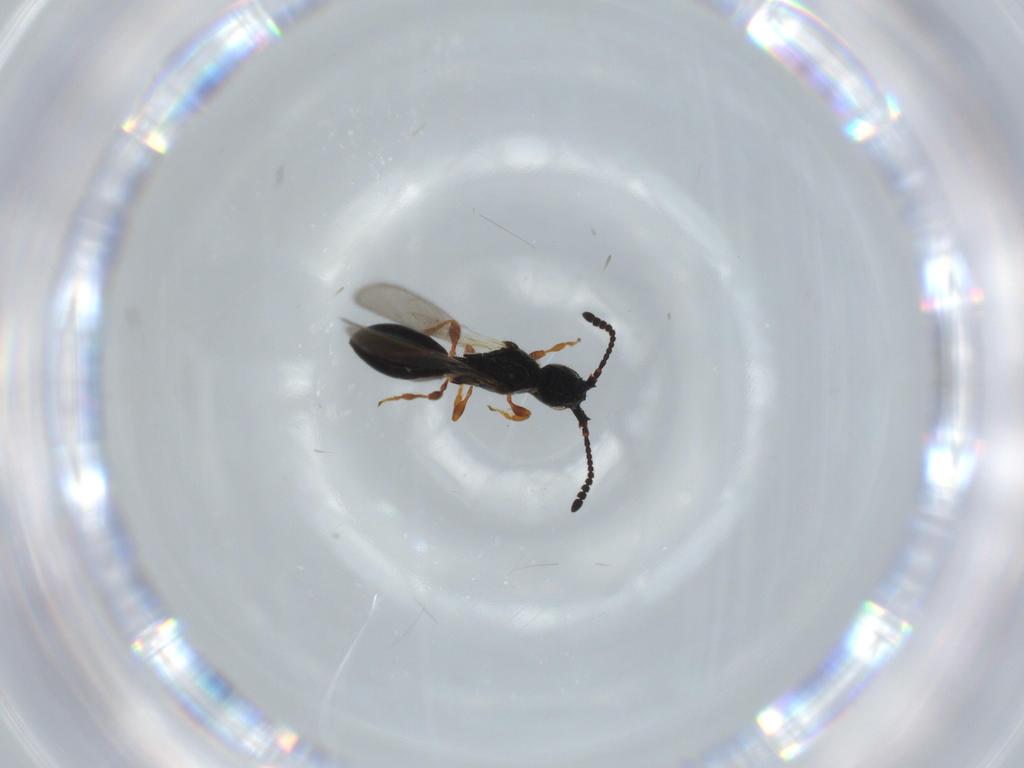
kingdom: Animalia
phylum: Arthropoda
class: Insecta
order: Hymenoptera
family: Diapriidae
